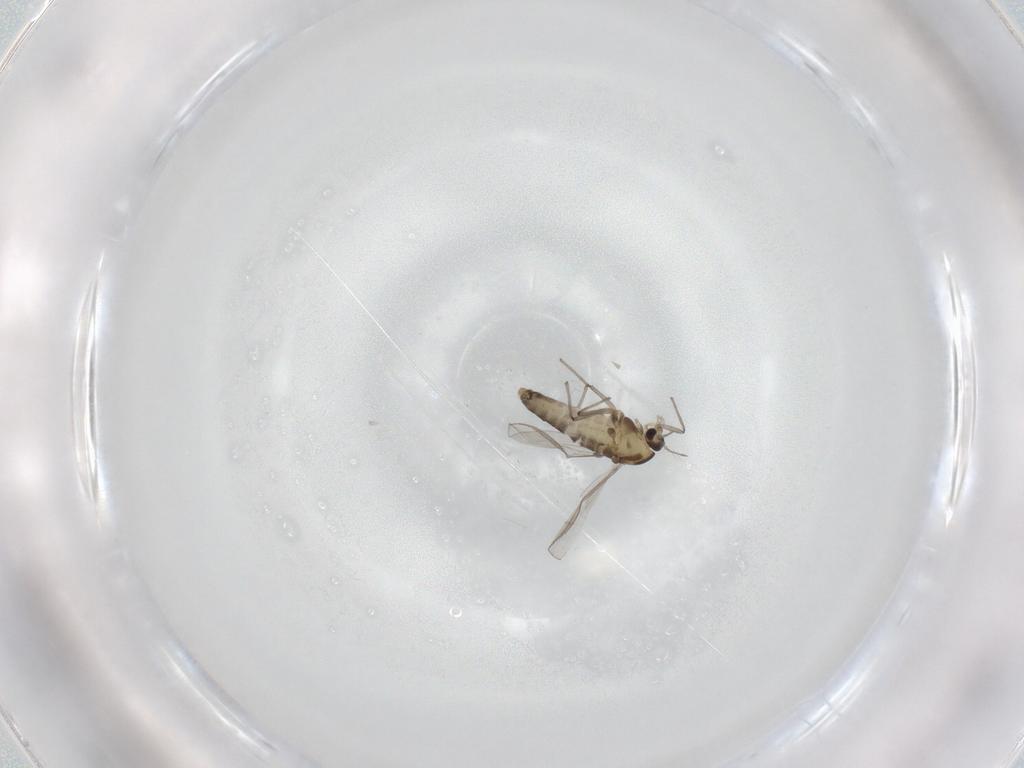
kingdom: Animalia
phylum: Arthropoda
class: Insecta
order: Diptera
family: Chironomidae
